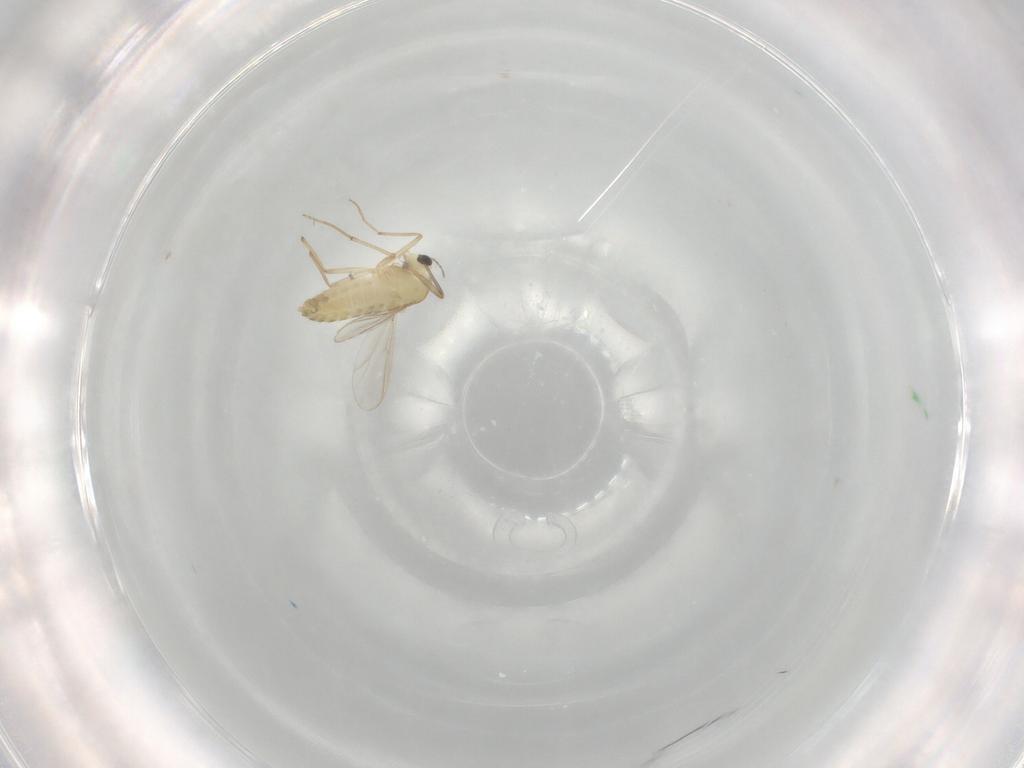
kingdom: Animalia
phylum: Arthropoda
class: Insecta
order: Diptera
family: Chironomidae
